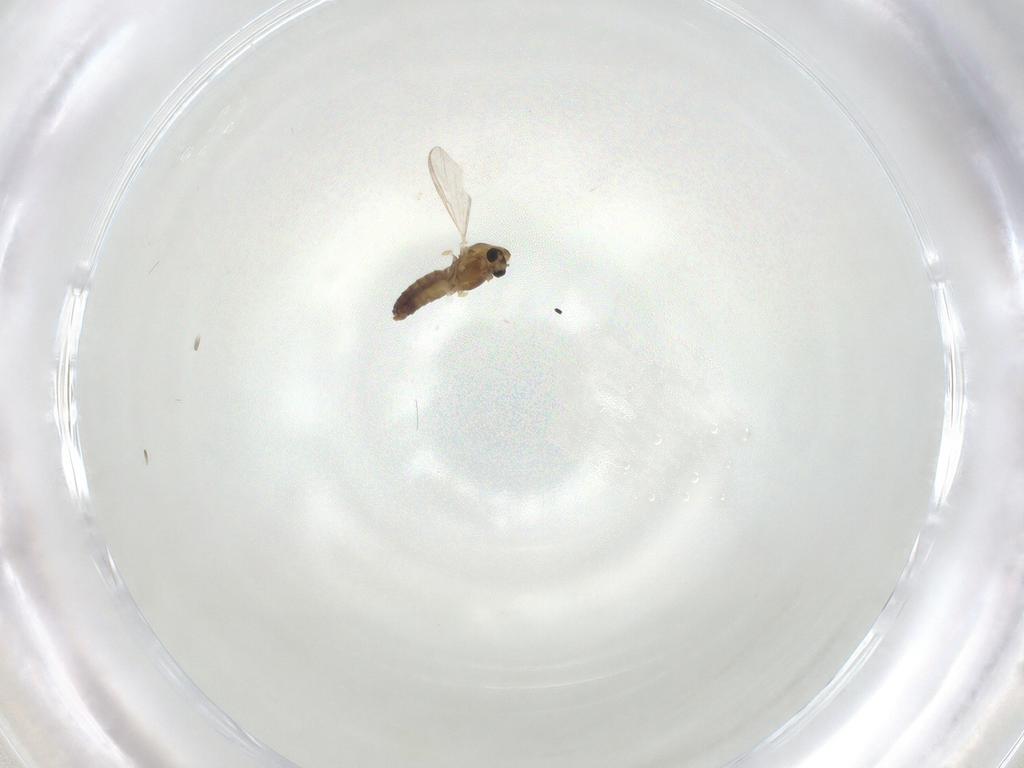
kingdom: Animalia
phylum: Arthropoda
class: Insecta
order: Diptera
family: Chironomidae
